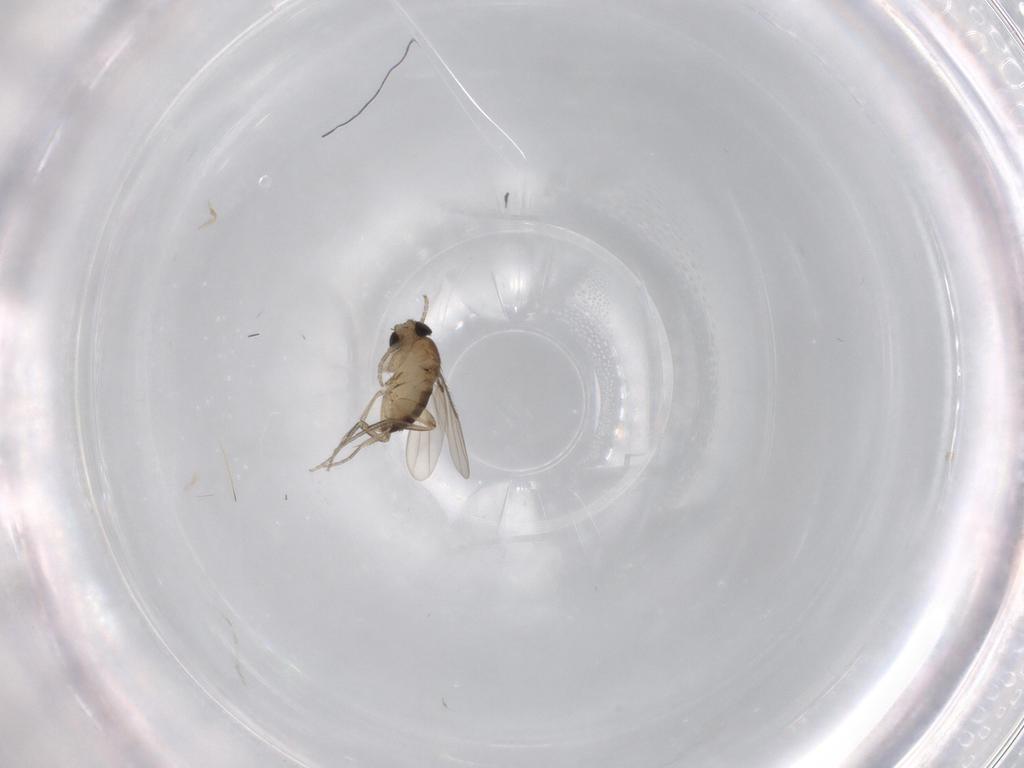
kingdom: Animalia
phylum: Arthropoda
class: Insecta
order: Diptera
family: Phoridae
